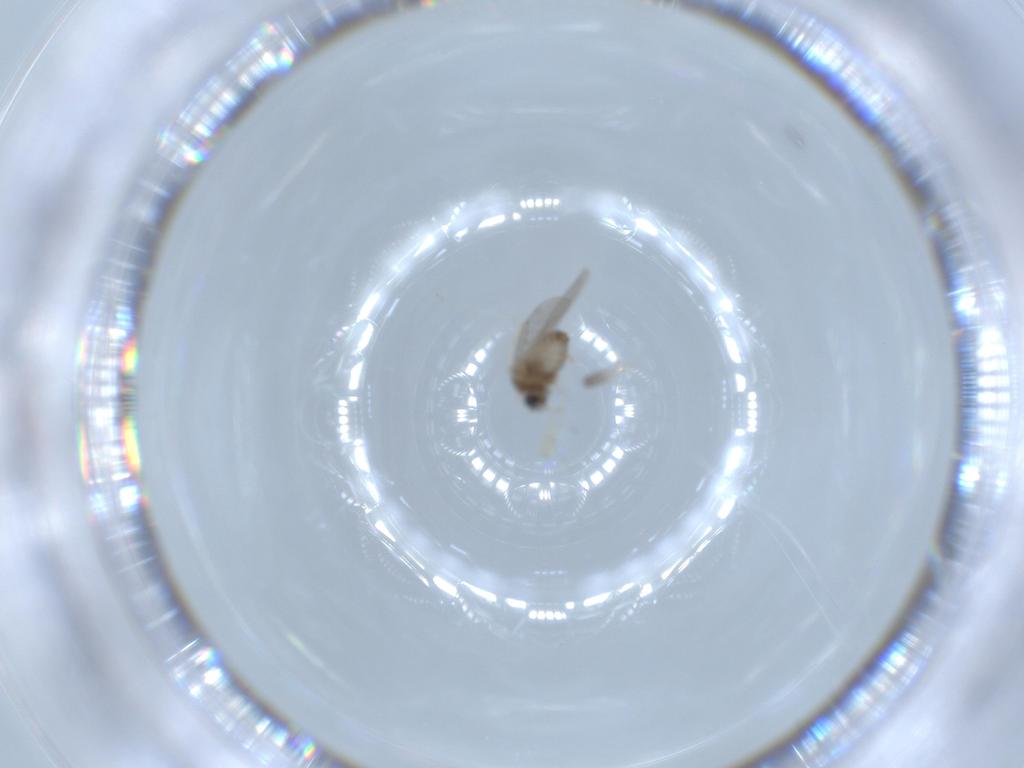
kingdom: Animalia
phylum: Arthropoda
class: Insecta
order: Diptera
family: Cecidomyiidae
